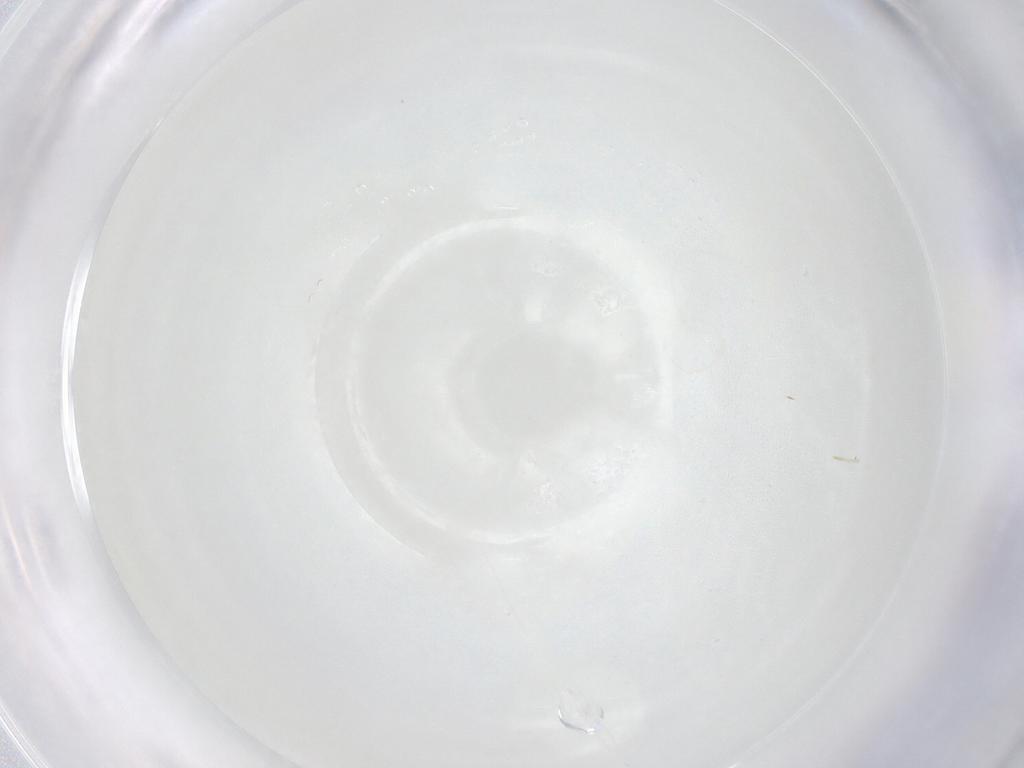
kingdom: Animalia
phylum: Arthropoda
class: Insecta
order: Diptera
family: Cecidomyiidae
